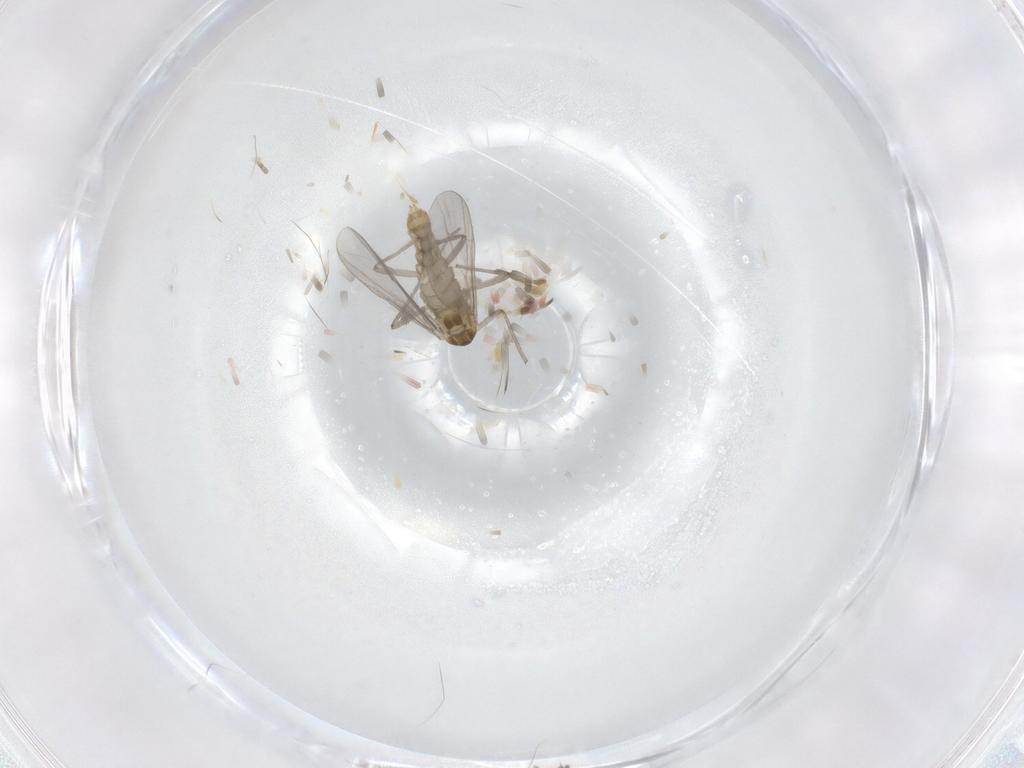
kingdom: Animalia
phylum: Arthropoda
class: Insecta
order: Diptera
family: Chironomidae
